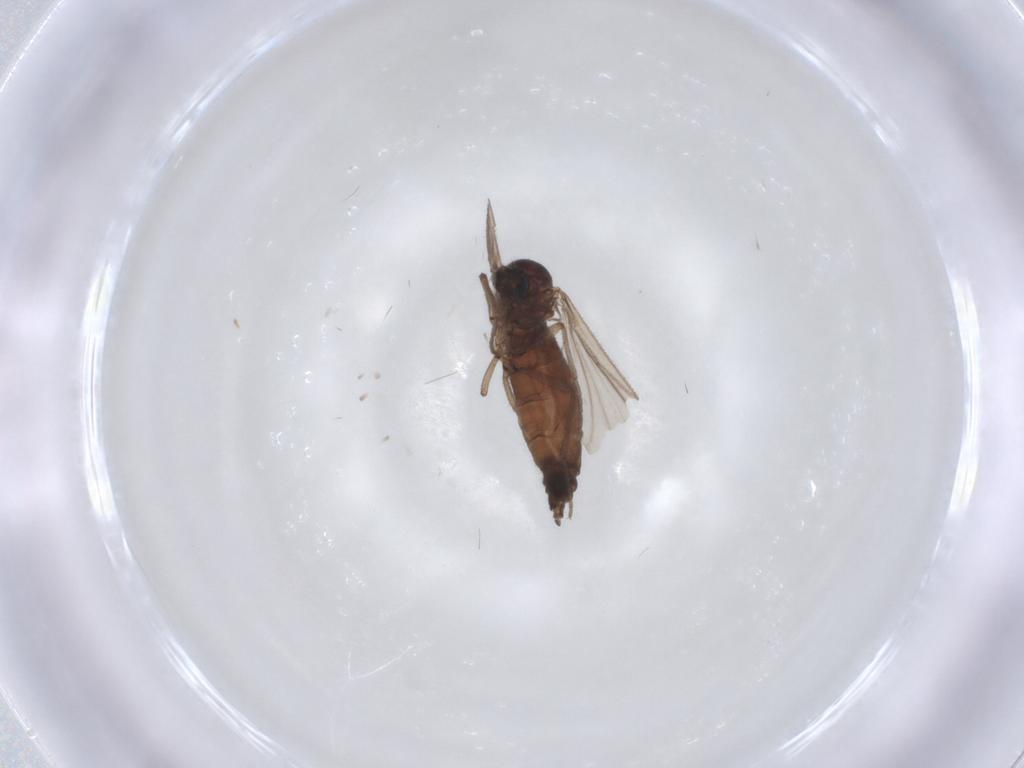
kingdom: Animalia
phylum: Arthropoda
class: Insecta
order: Diptera
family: Sciaridae
